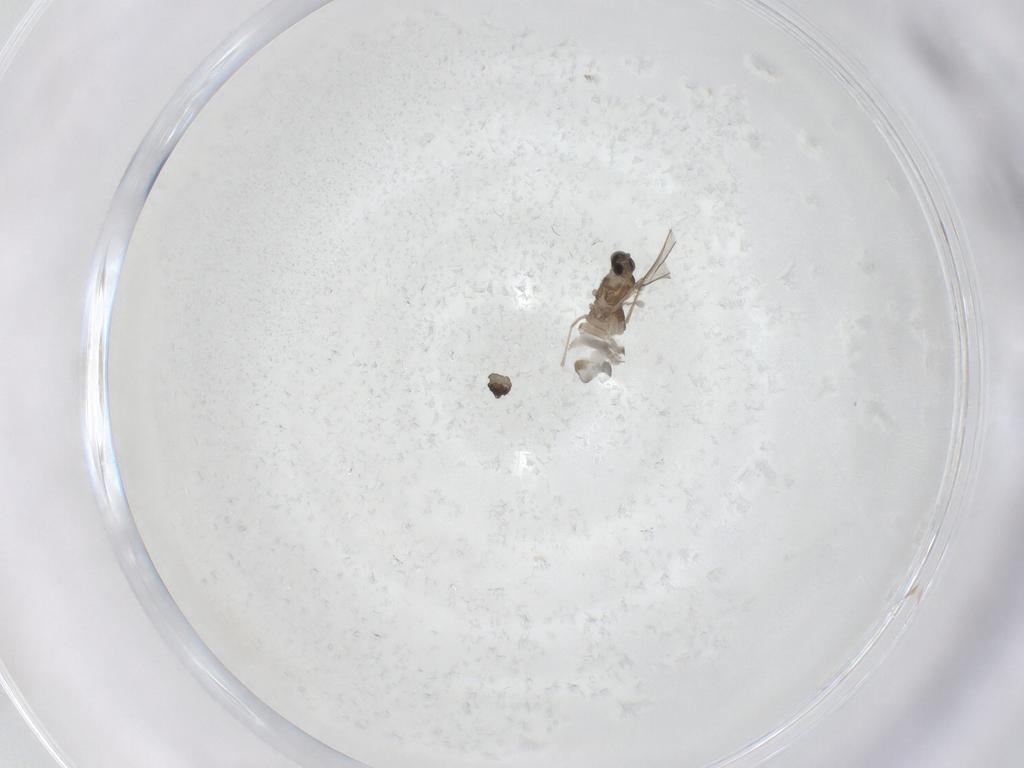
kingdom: Animalia
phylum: Arthropoda
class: Insecta
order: Diptera
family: Cecidomyiidae
